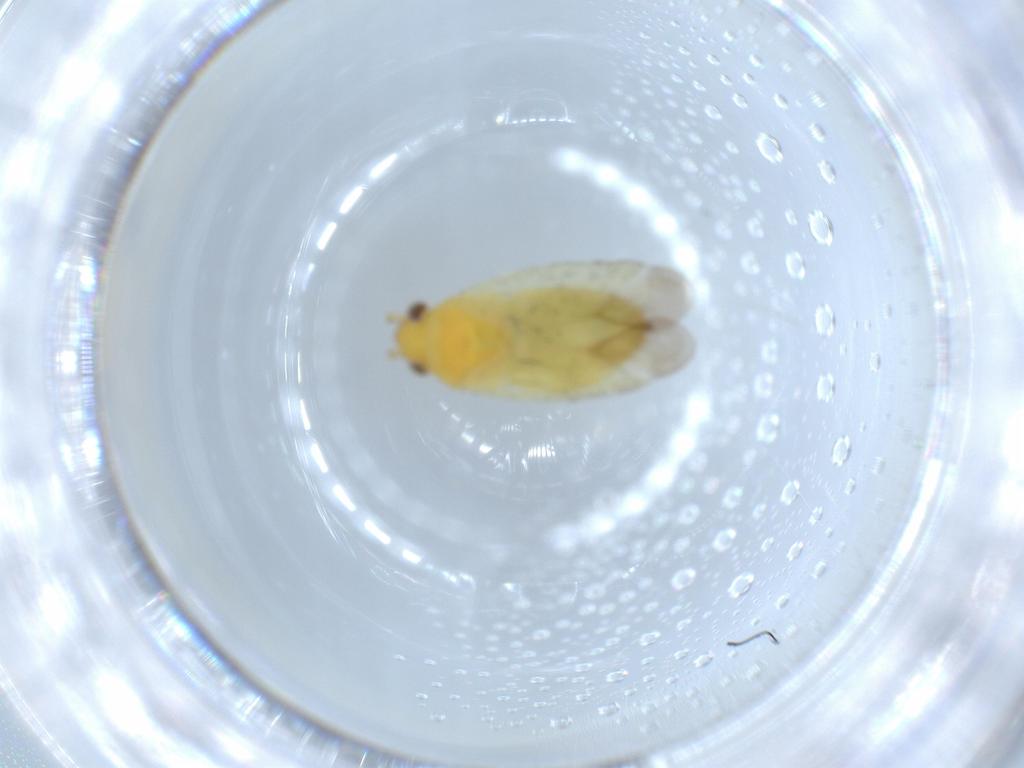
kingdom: Animalia
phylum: Arthropoda
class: Insecta
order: Hemiptera
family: Miridae
